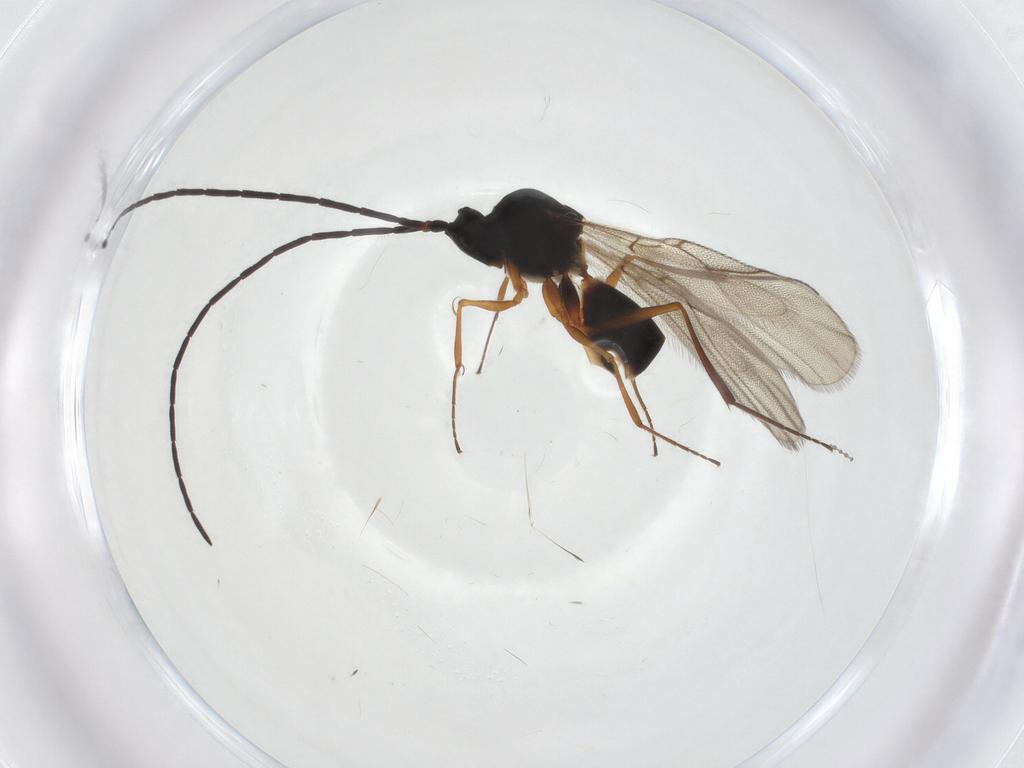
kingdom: Animalia
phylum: Arthropoda
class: Insecta
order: Hymenoptera
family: Figitidae
